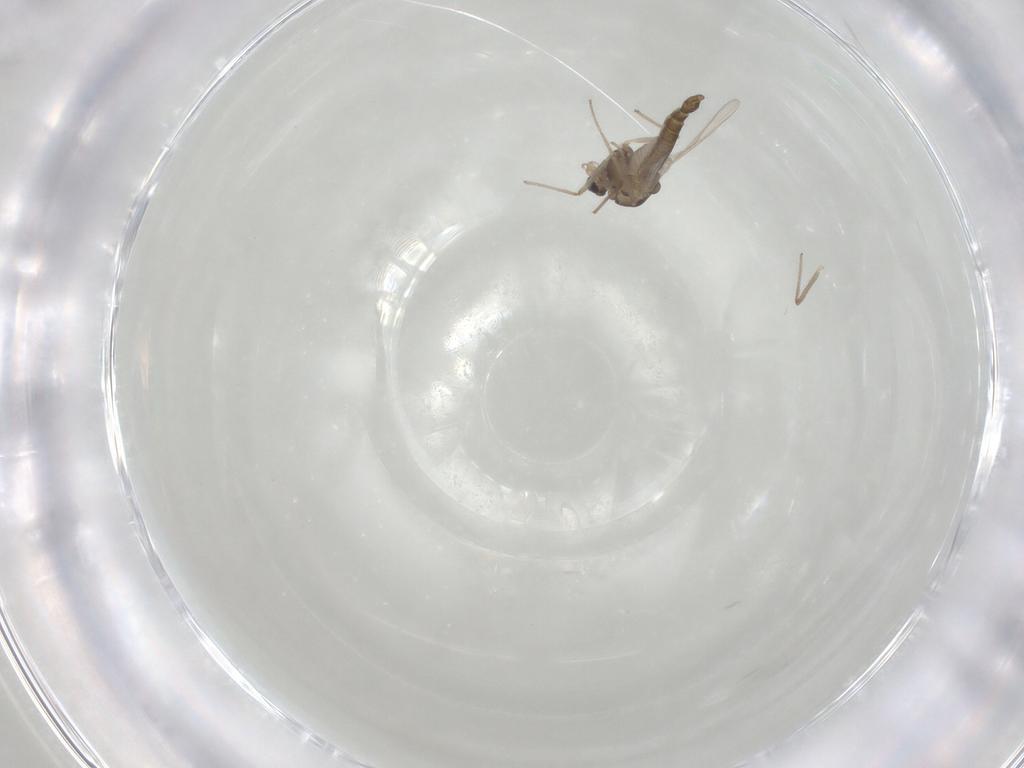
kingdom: Animalia
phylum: Arthropoda
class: Insecta
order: Diptera
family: Chironomidae
